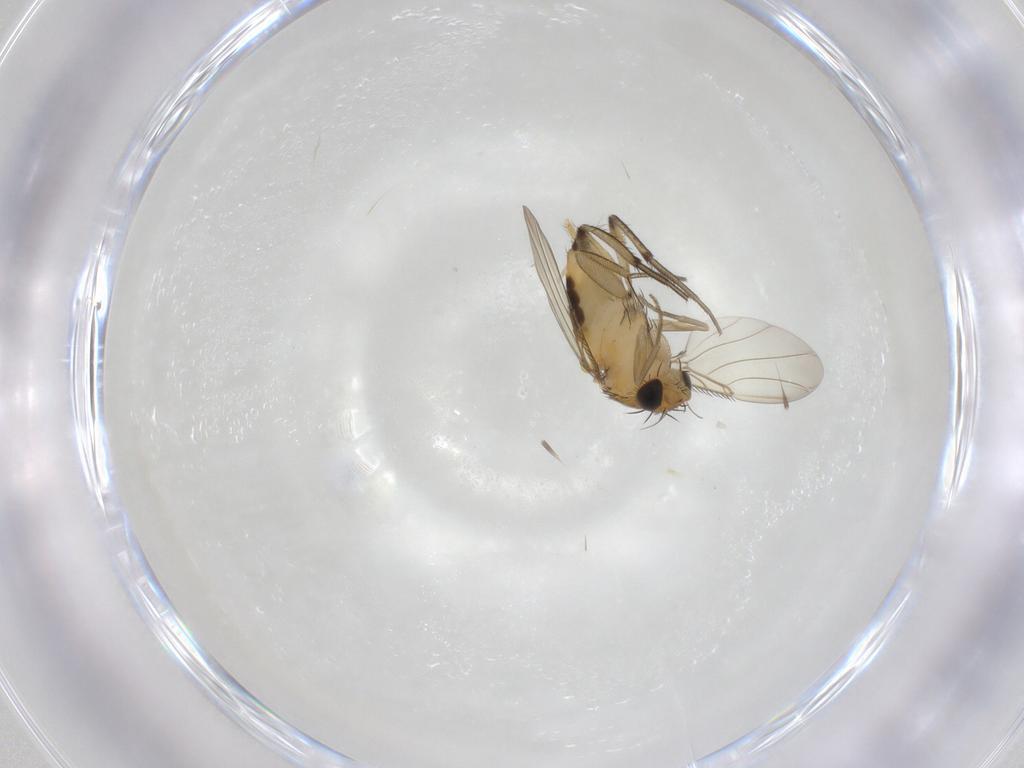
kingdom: Animalia
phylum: Arthropoda
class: Insecta
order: Diptera
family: Phoridae
